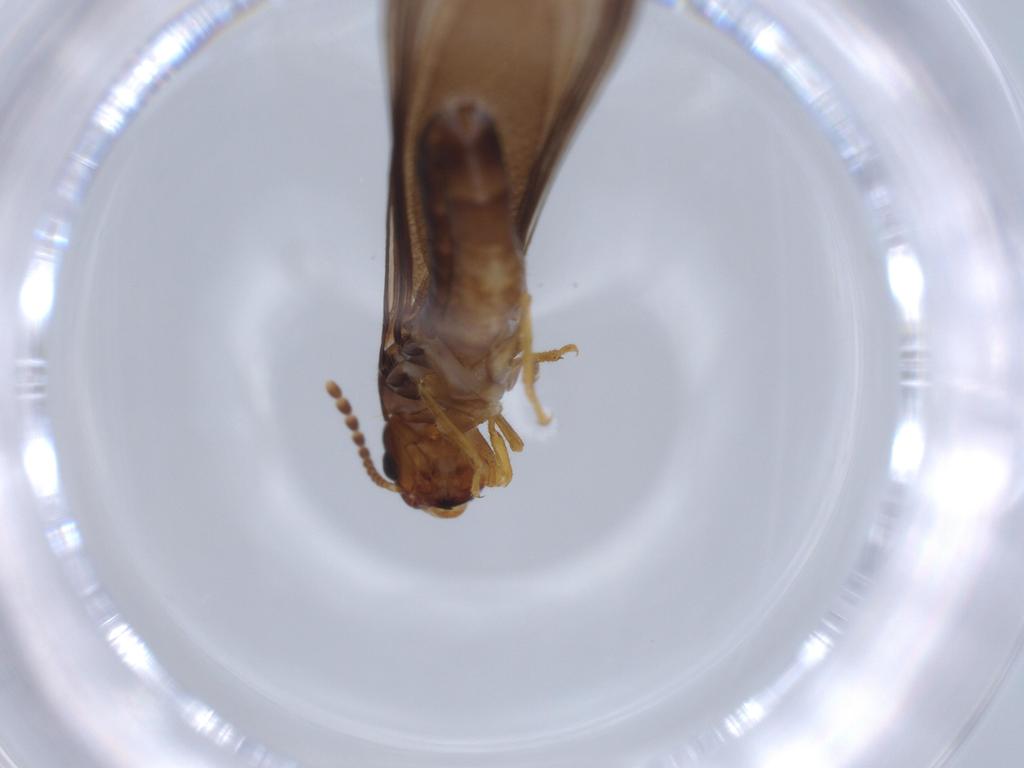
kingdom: Animalia
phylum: Arthropoda
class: Insecta
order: Blattodea
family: Kalotermitidae
